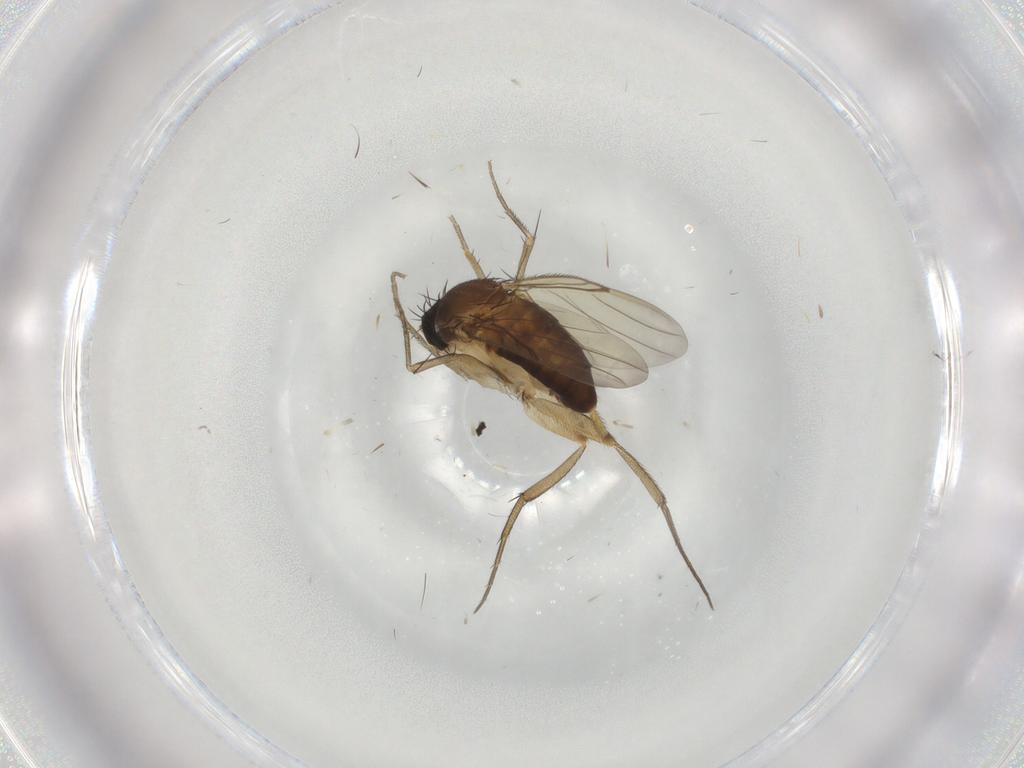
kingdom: Animalia
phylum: Arthropoda
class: Insecta
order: Diptera
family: Phoridae
